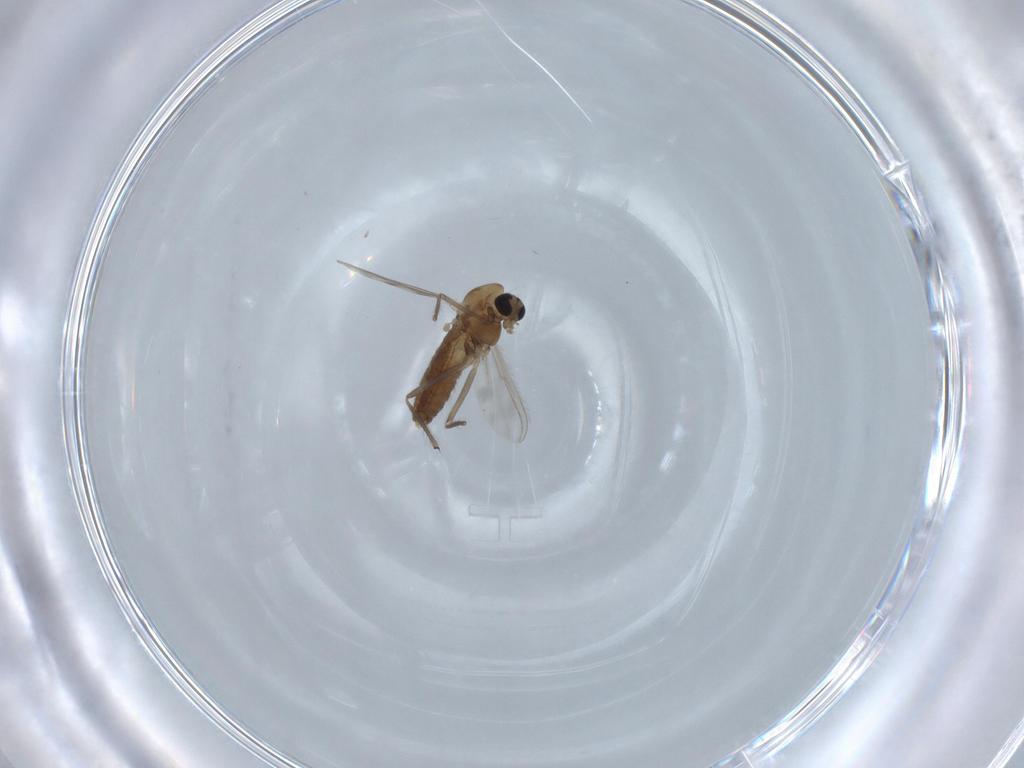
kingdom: Animalia
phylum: Arthropoda
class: Insecta
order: Diptera
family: Chironomidae
